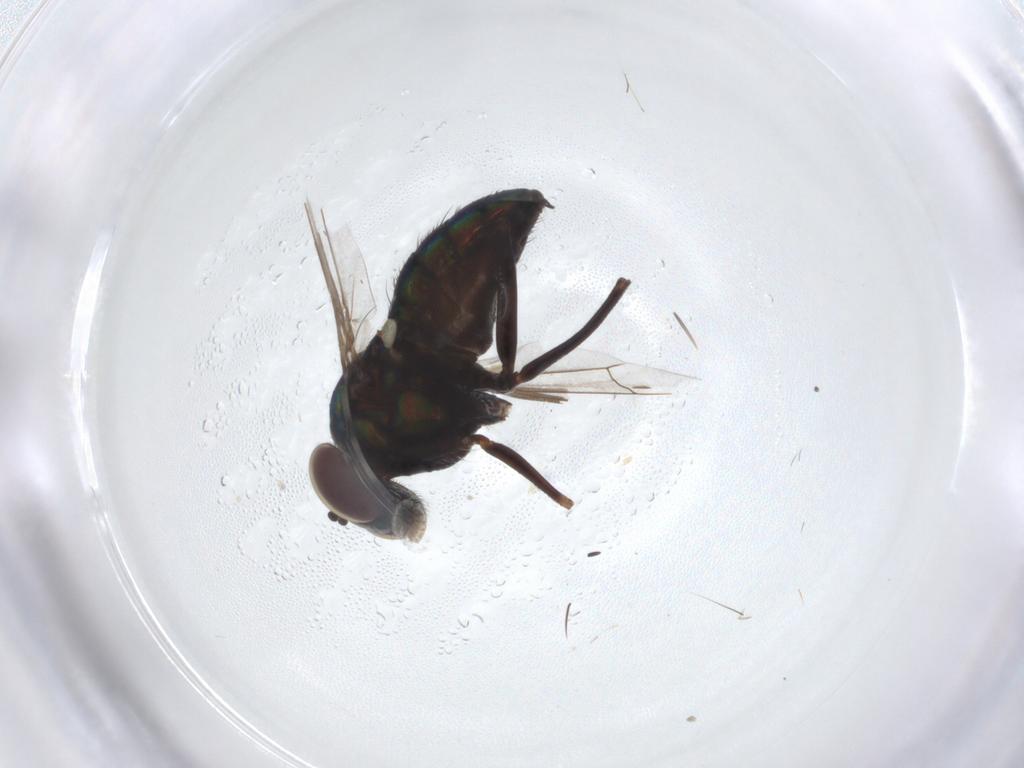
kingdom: Animalia
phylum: Arthropoda
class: Insecta
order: Diptera
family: Dolichopodidae
